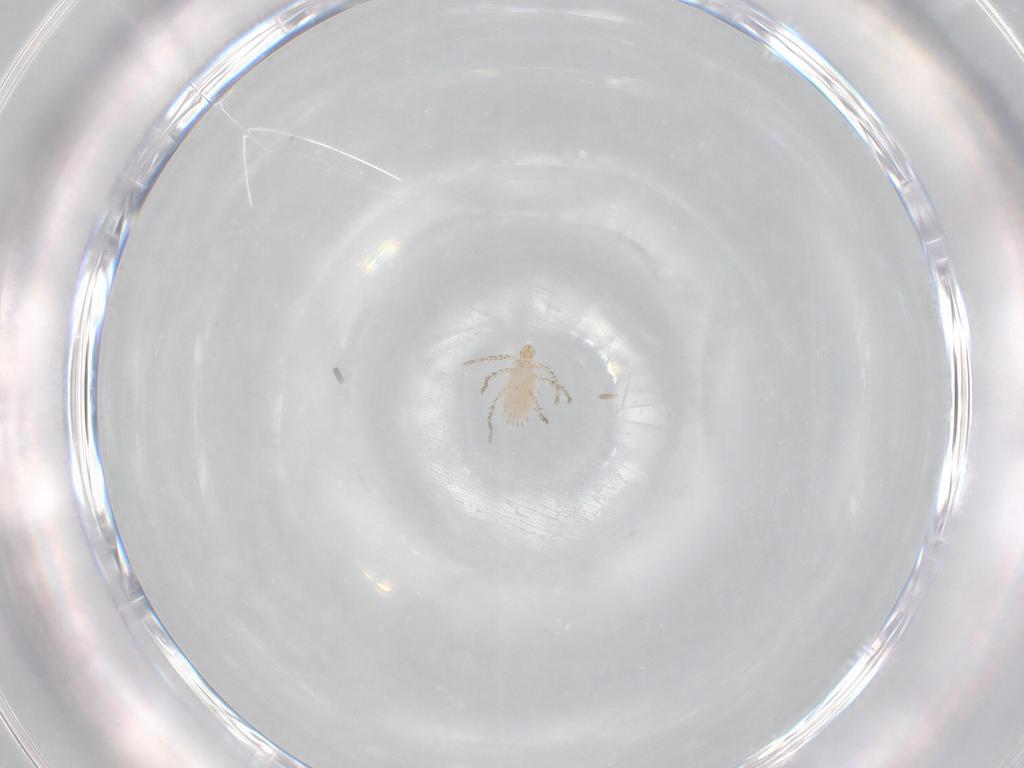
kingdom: Animalia
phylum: Arthropoda
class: Arachnida
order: Trombidiformes
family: Erythraeidae
